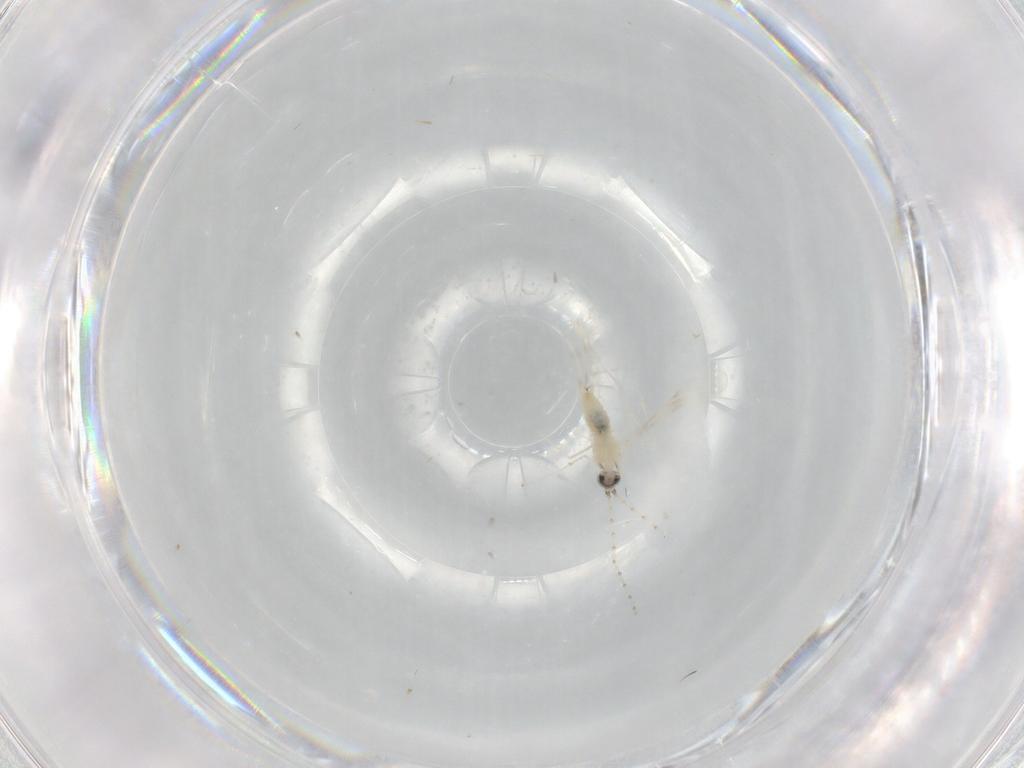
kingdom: Animalia
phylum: Arthropoda
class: Insecta
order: Diptera
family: Cecidomyiidae
